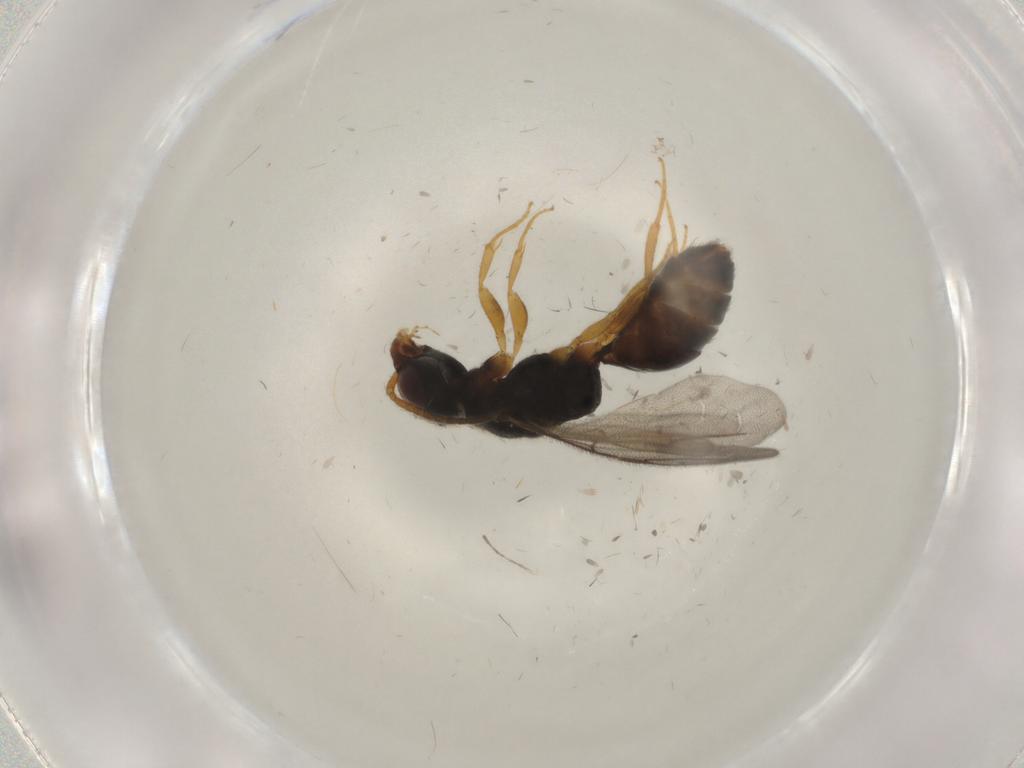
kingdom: Animalia
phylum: Arthropoda
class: Insecta
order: Hymenoptera
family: Bethylidae
